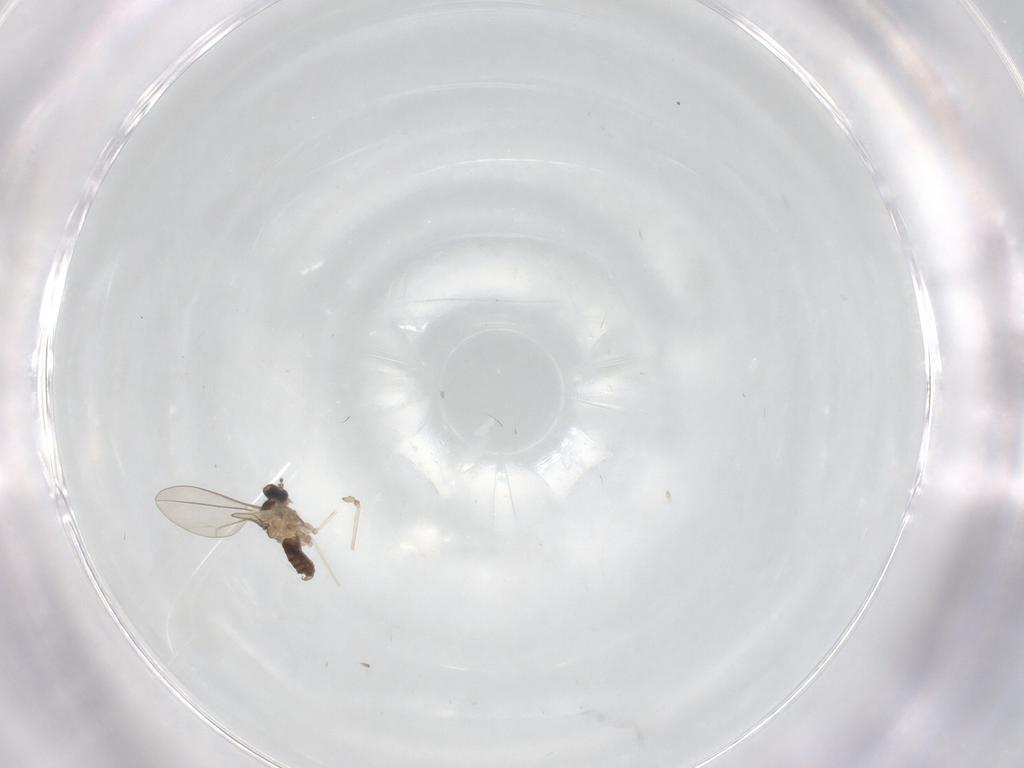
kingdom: Animalia
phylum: Arthropoda
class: Insecta
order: Diptera
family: Cecidomyiidae
